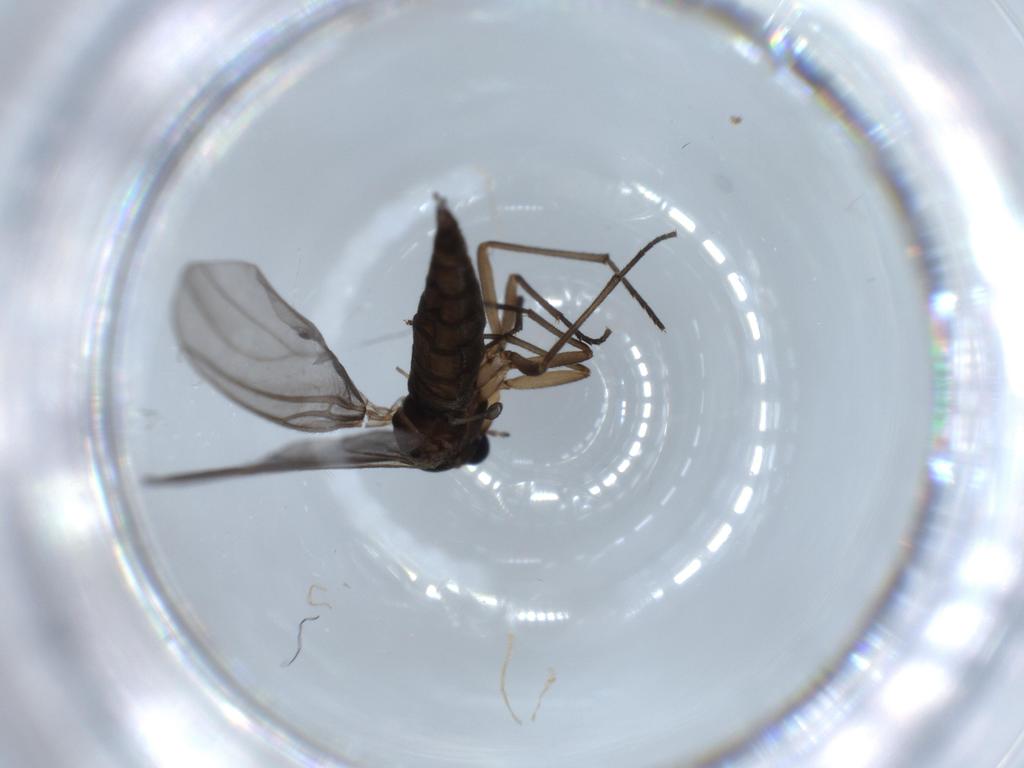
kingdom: Animalia
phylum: Arthropoda
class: Insecta
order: Diptera
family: Sciaridae
